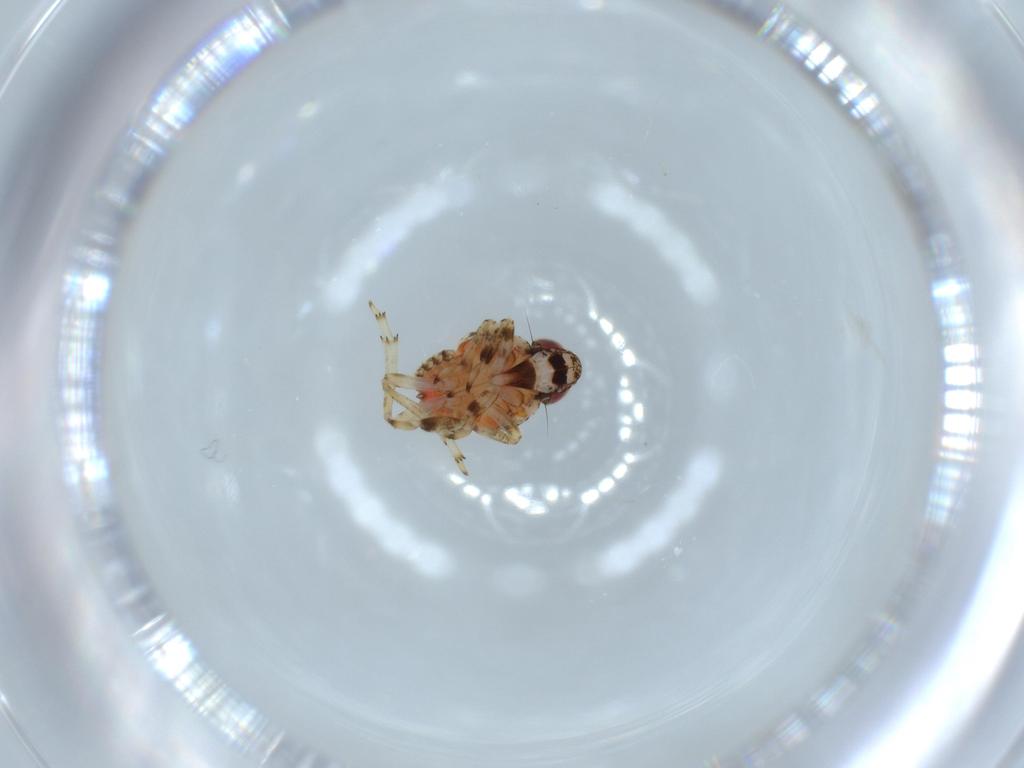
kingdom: Animalia
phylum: Arthropoda
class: Insecta
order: Hemiptera
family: Issidae
